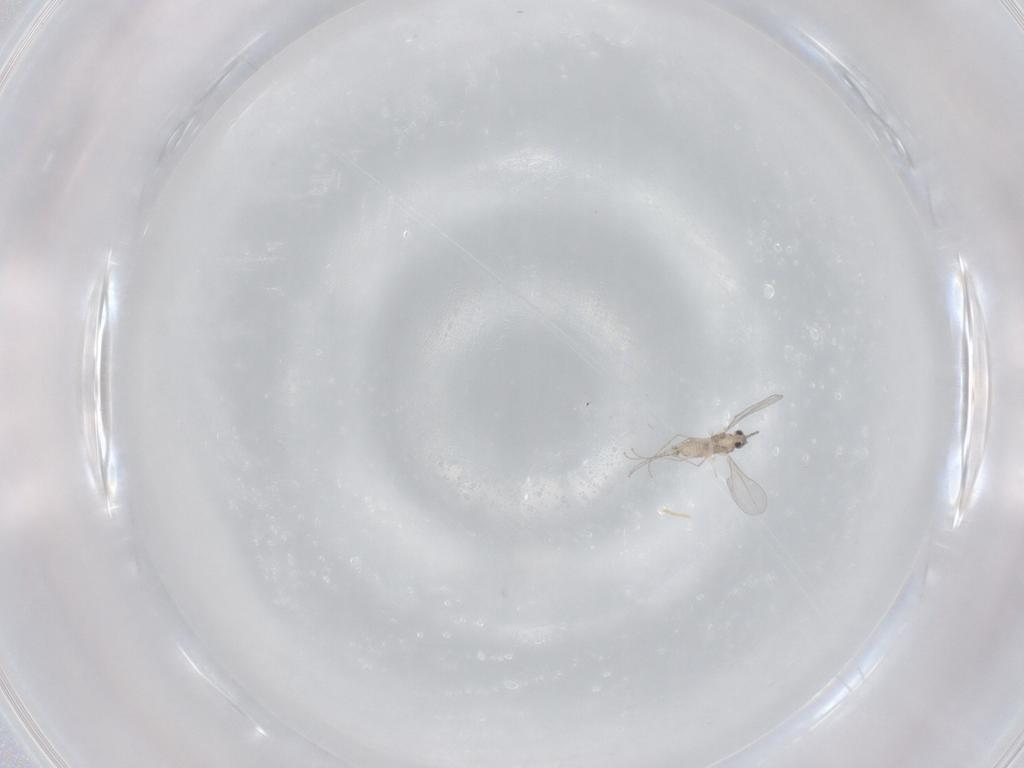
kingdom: Animalia
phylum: Arthropoda
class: Insecta
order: Diptera
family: Cecidomyiidae
